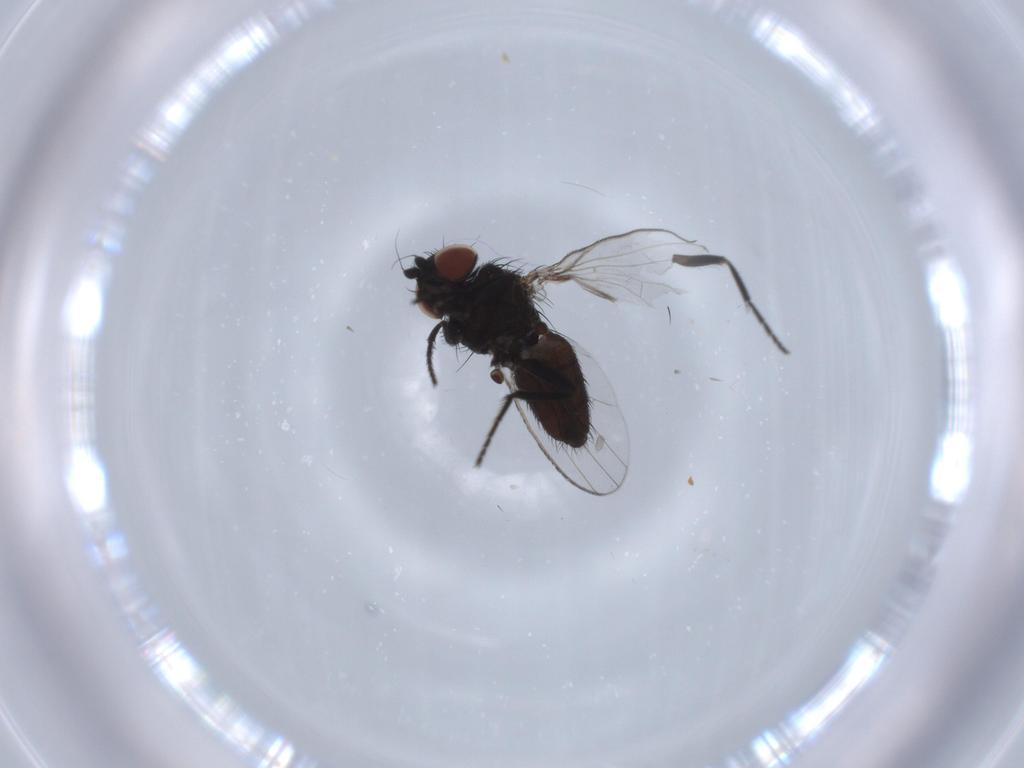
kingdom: Animalia
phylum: Arthropoda
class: Insecta
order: Diptera
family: Milichiidae
